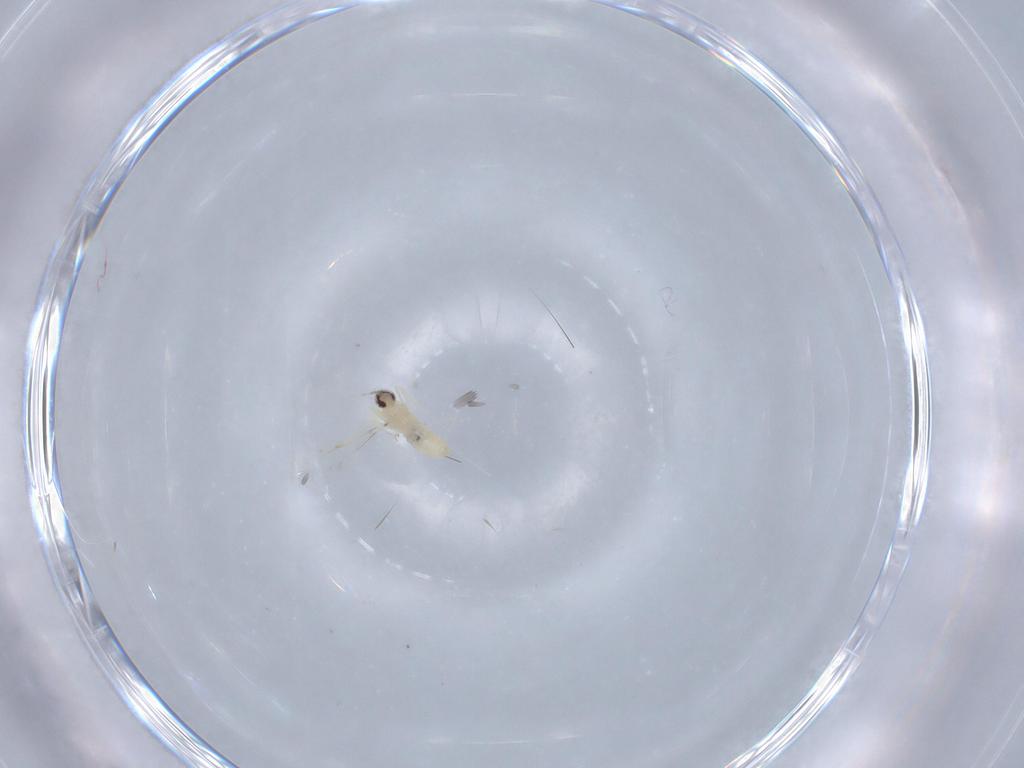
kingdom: Animalia
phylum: Arthropoda
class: Insecta
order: Diptera
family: Cecidomyiidae
